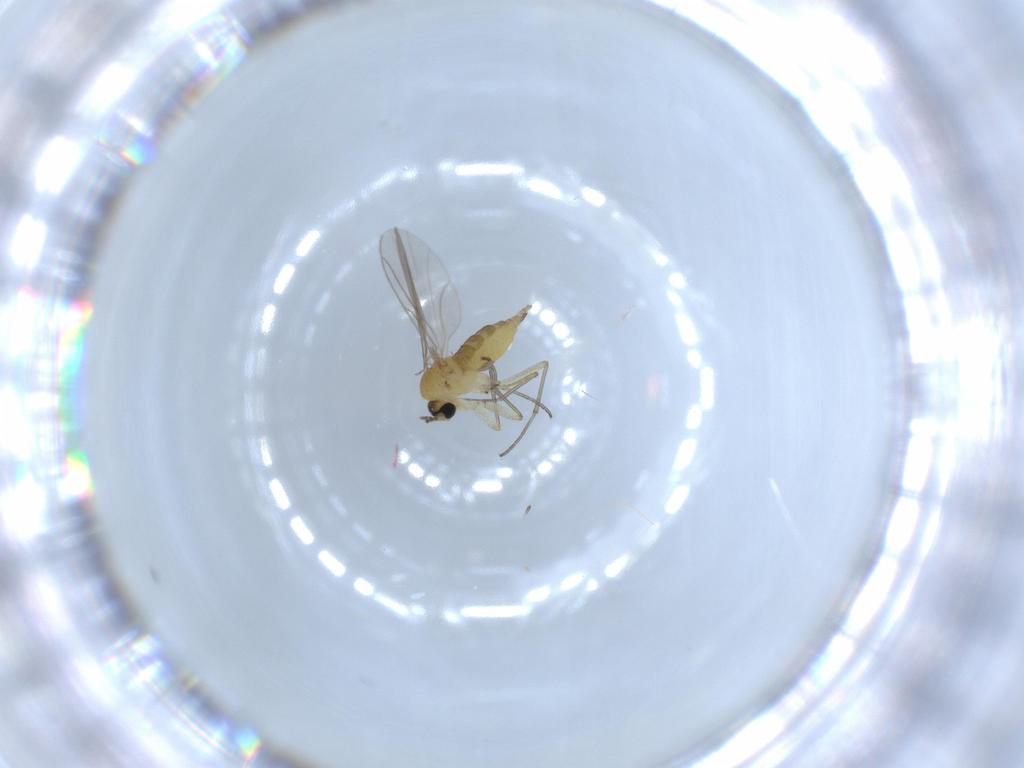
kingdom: Animalia
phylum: Arthropoda
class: Insecta
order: Diptera
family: Sciaridae
